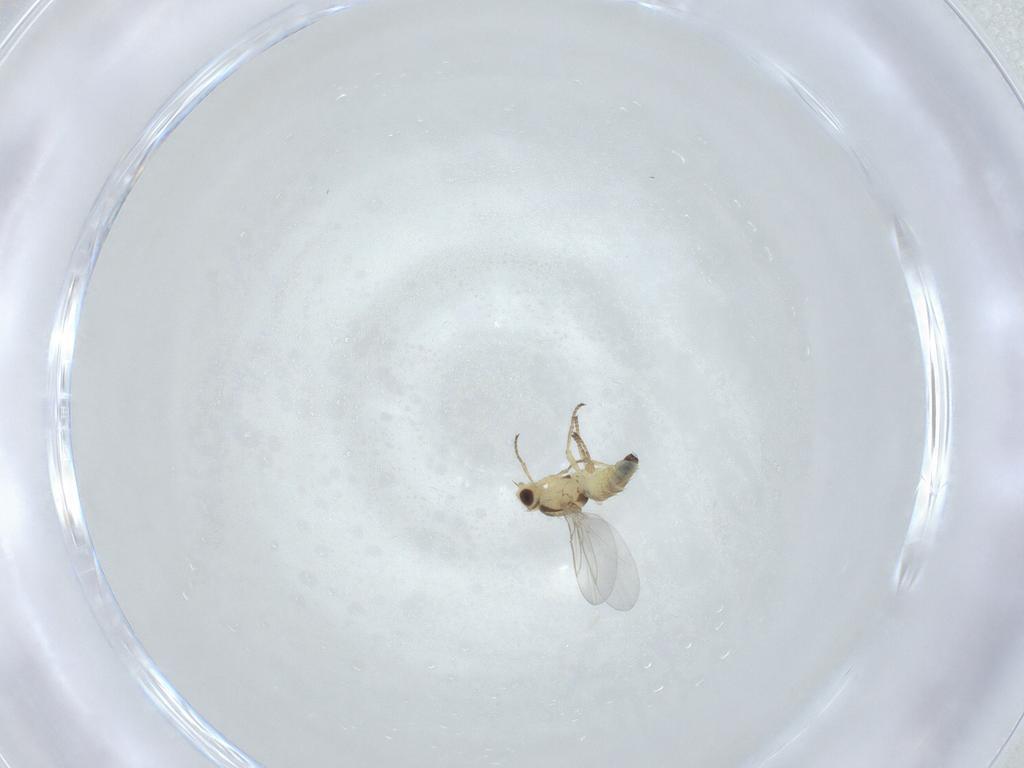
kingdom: Animalia
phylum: Arthropoda
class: Insecta
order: Diptera
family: Agromyzidae
